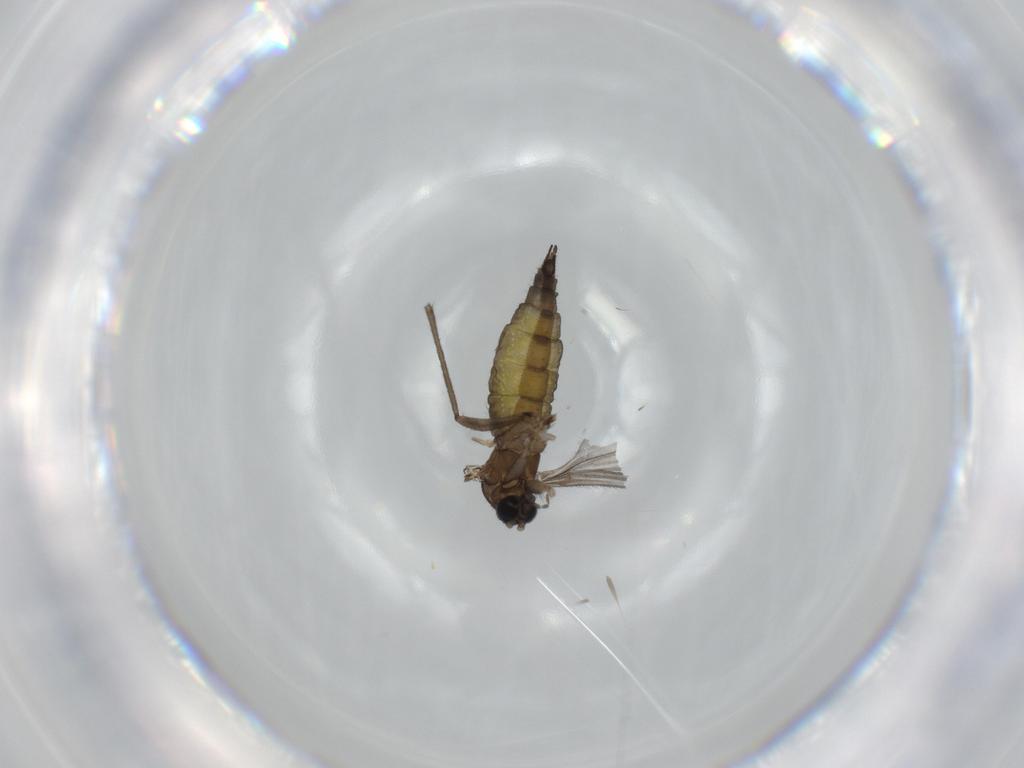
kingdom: Animalia
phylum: Arthropoda
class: Insecta
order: Diptera
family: Sciaridae
